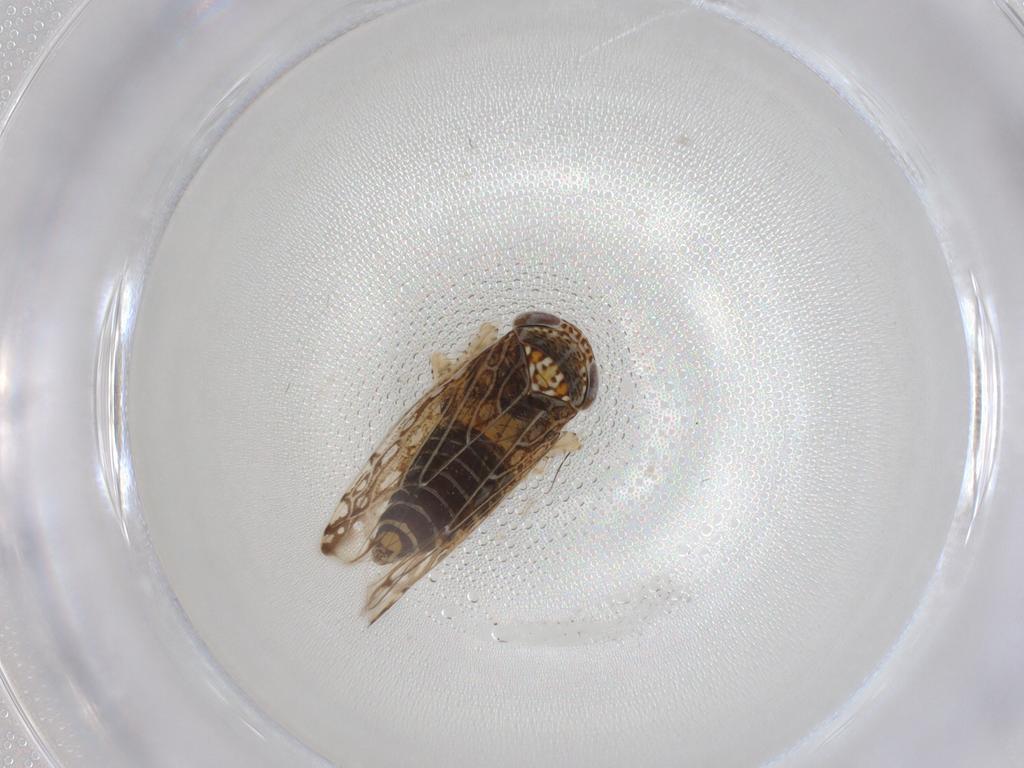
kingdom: Animalia
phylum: Arthropoda
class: Insecta
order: Hemiptera
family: Cicadellidae
